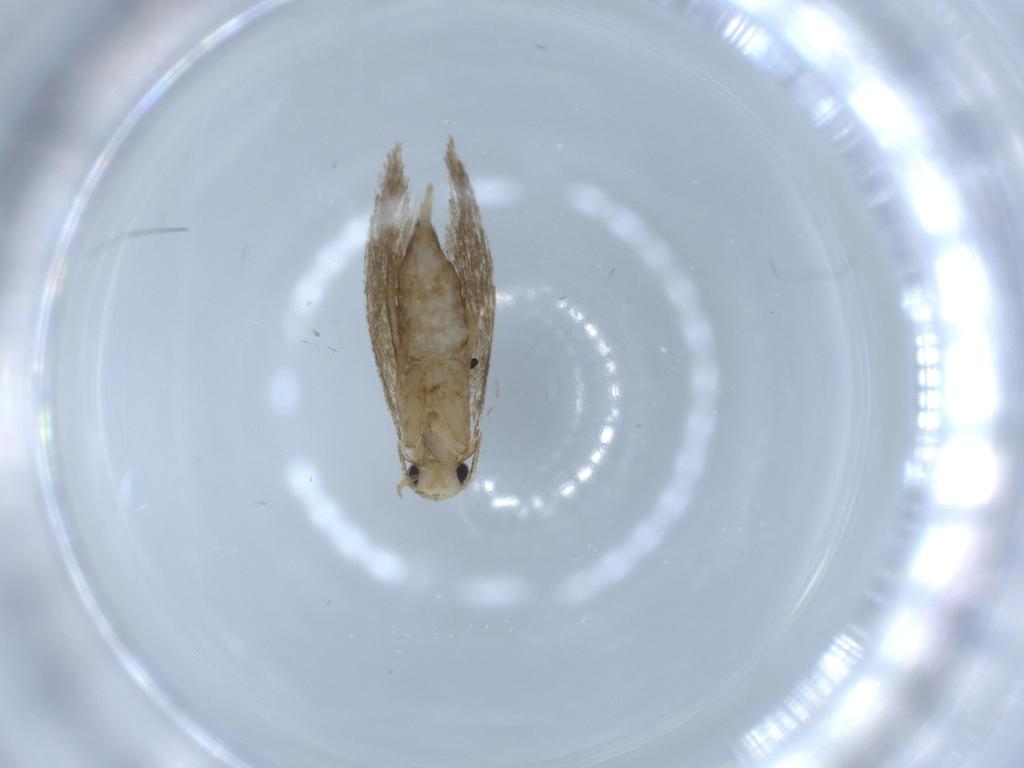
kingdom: Animalia
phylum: Arthropoda
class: Insecta
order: Lepidoptera
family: Tineidae
